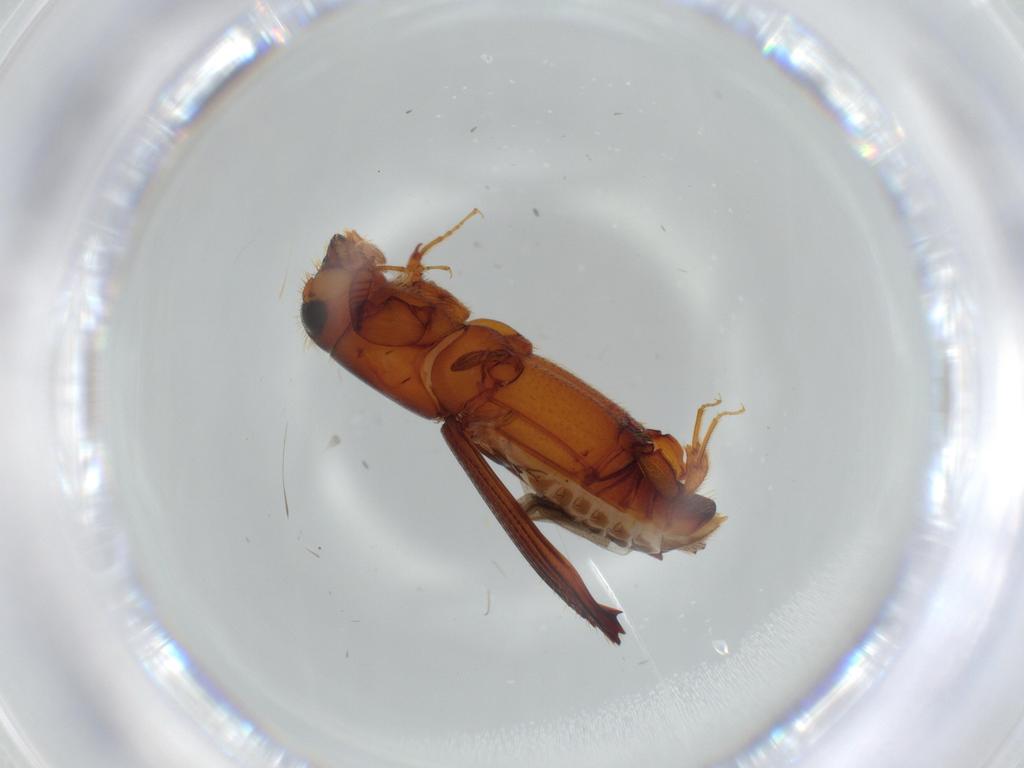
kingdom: Animalia
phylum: Arthropoda
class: Insecta
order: Coleoptera
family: Curculionidae
